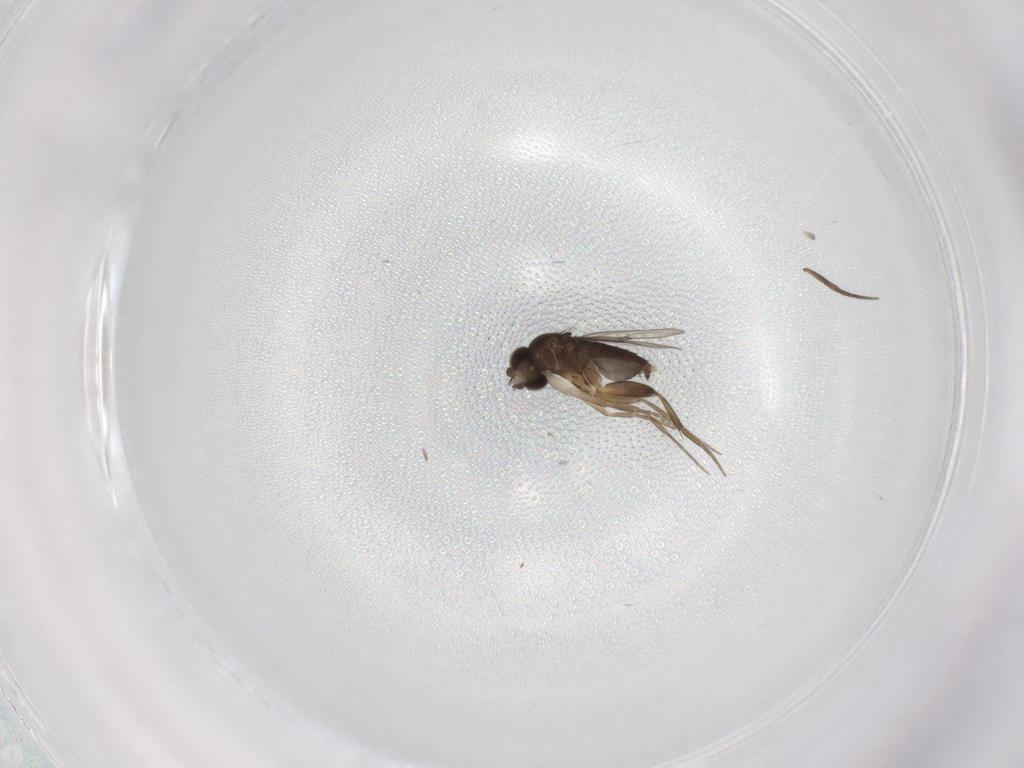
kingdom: Animalia
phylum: Arthropoda
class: Insecta
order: Diptera
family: Phoridae
